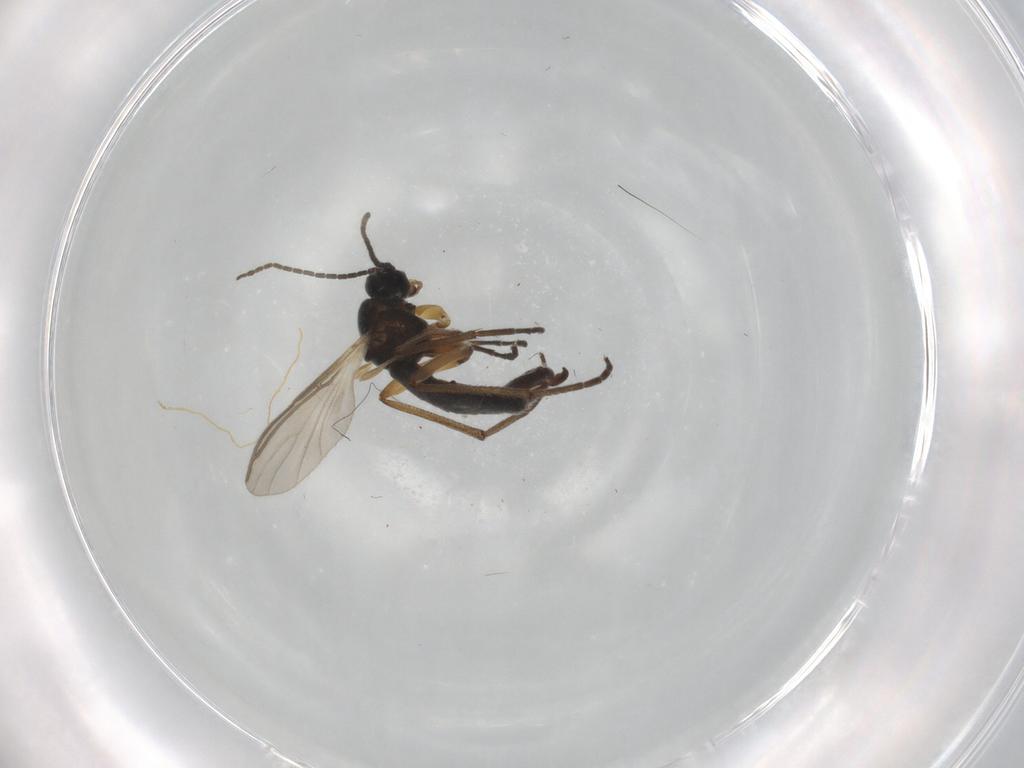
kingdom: Animalia
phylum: Arthropoda
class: Insecta
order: Diptera
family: Sciaridae
